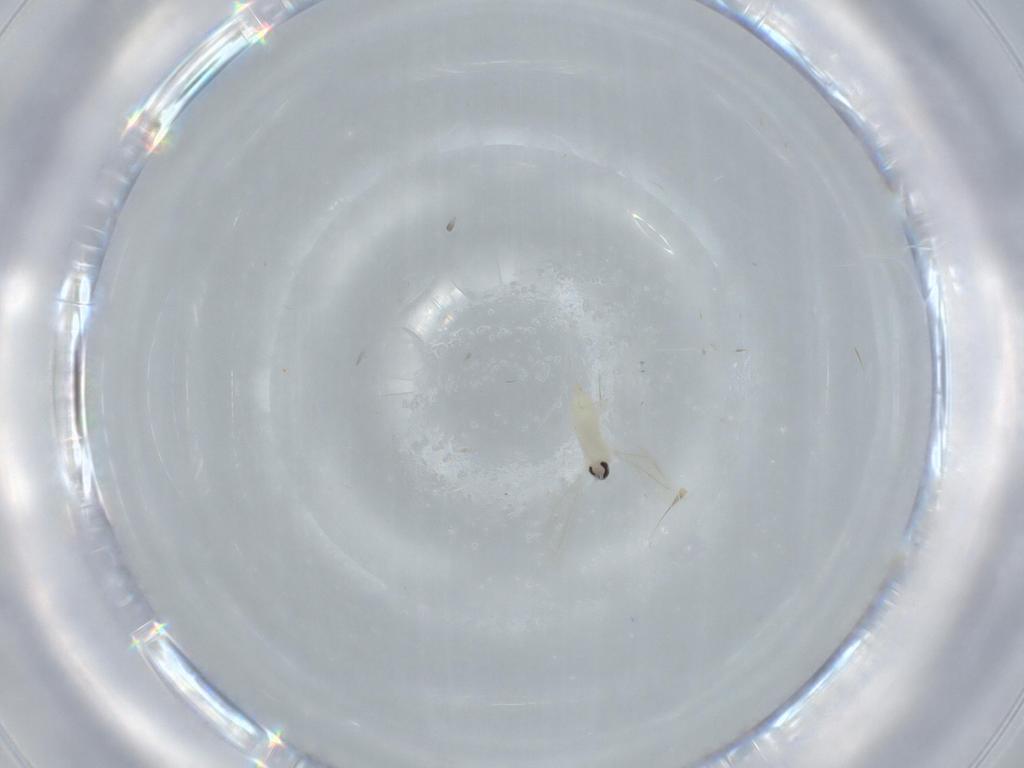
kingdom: Animalia
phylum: Arthropoda
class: Insecta
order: Diptera
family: Cecidomyiidae
